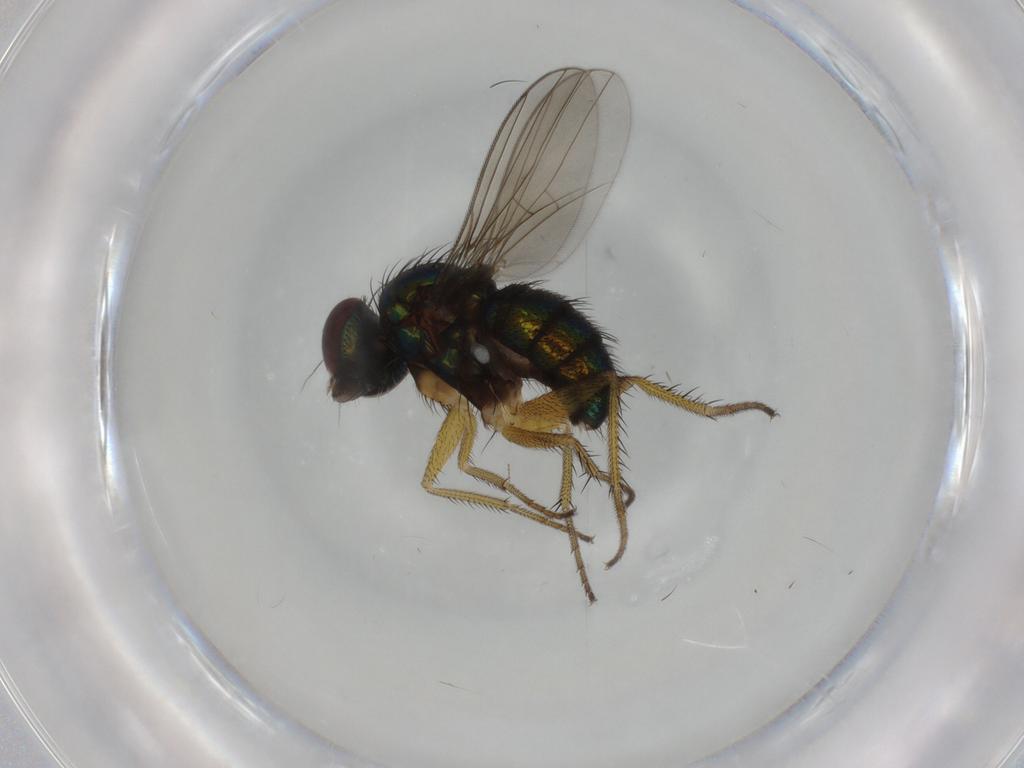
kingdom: Animalia
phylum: Arthropoda
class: Insecta
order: Diptera
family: Dolichopodidae
